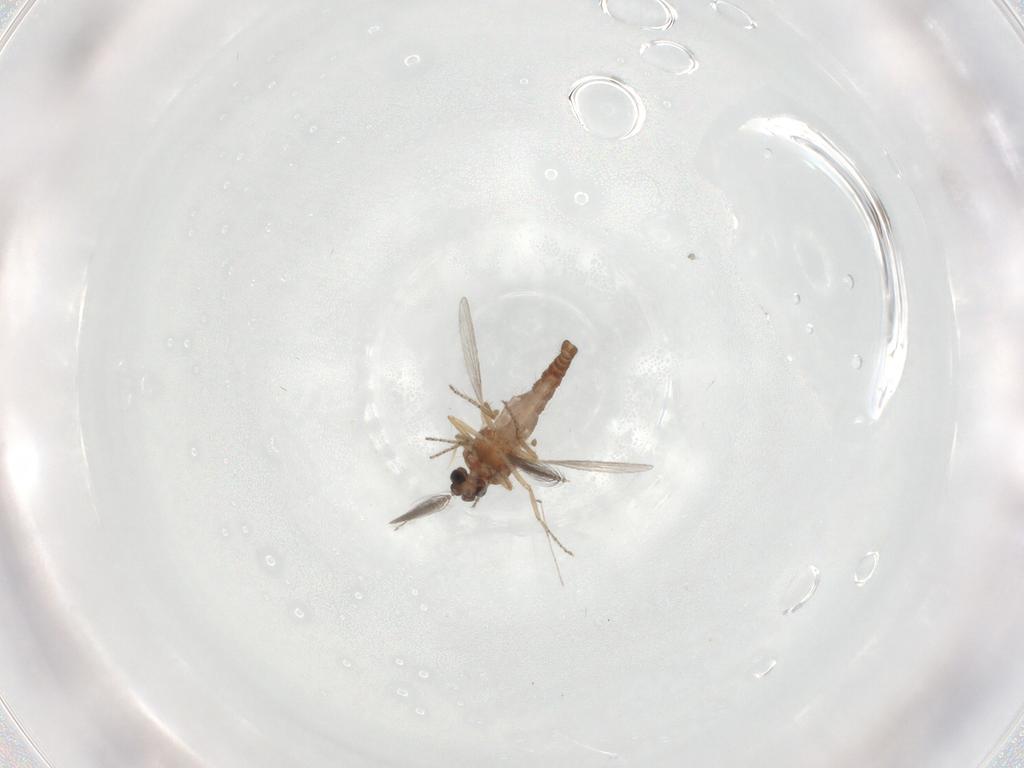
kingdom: Animalia
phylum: Arthropoda
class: Insecta
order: Diptera
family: Ceratopogonidae
